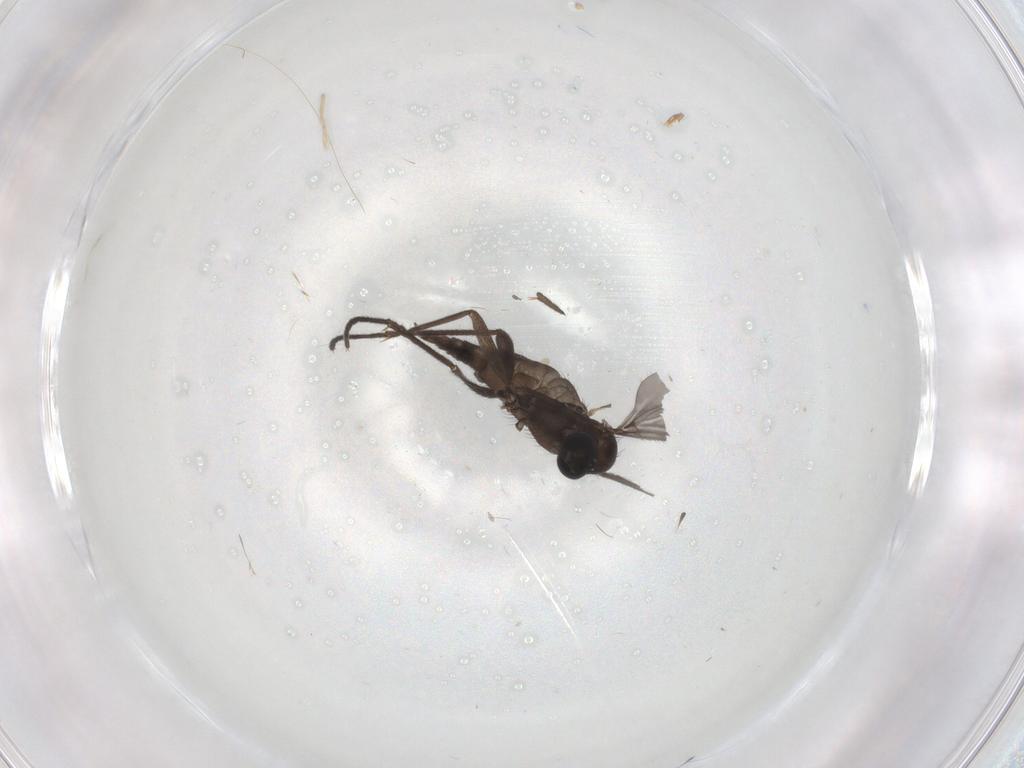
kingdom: Animalia
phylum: Arthropoda
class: Insecta
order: Diptera
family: Sciaridae
